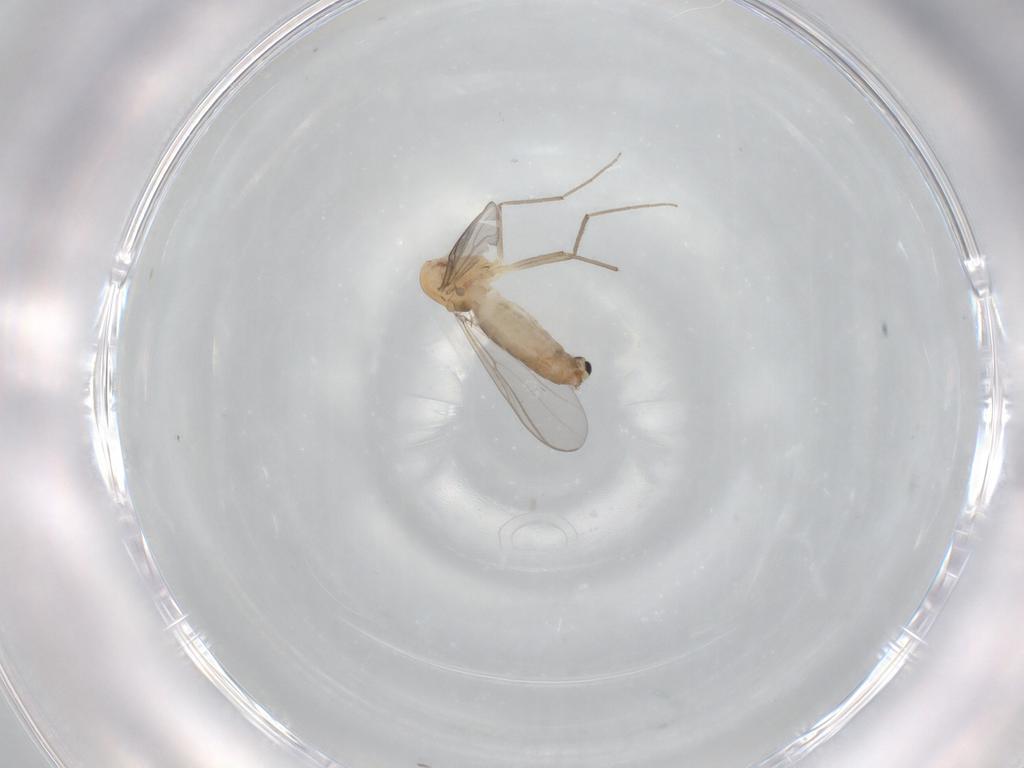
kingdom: Animalia
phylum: Arthropoda
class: Insecta
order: Diptera
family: Chironomidae
